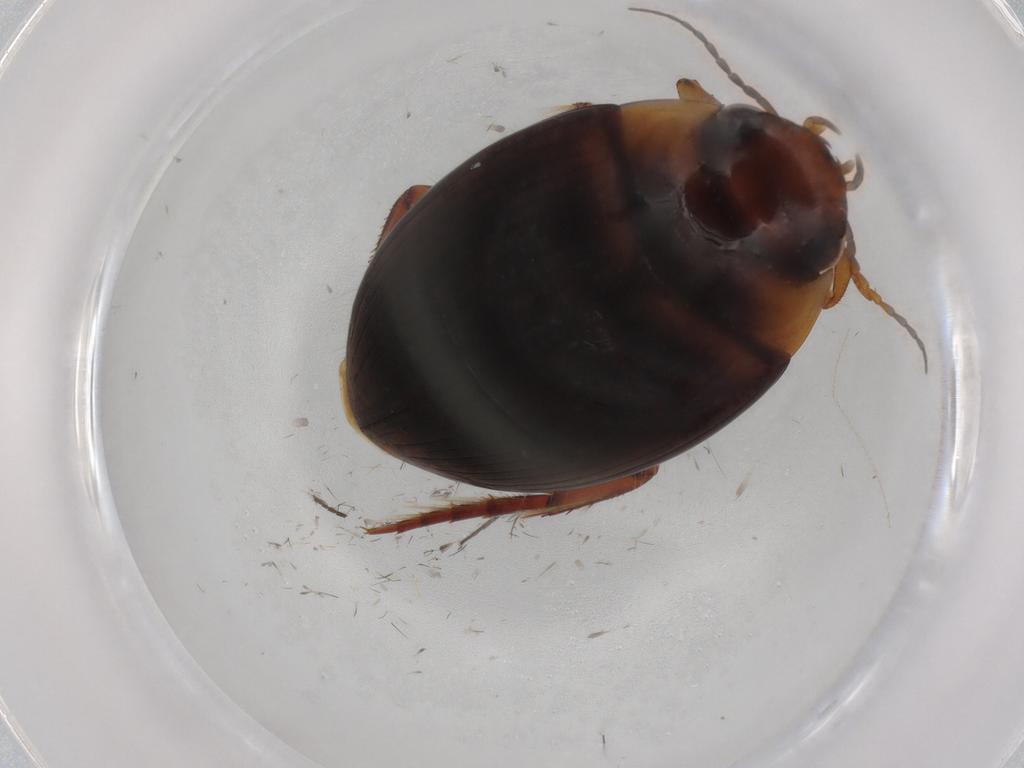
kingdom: Animalia
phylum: Arthropoda
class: Insecta
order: Coleoptera
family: Dytiscidae
